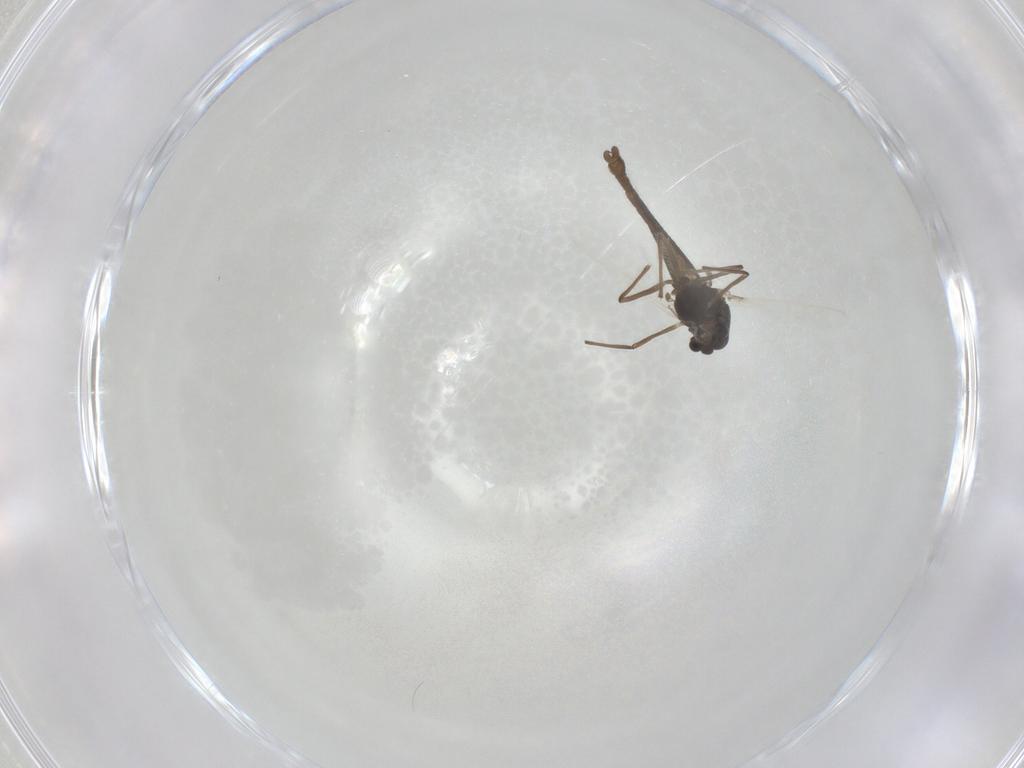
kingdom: Animalia
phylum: Arthropoda
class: Insecta
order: Diptera
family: Chironomidae
